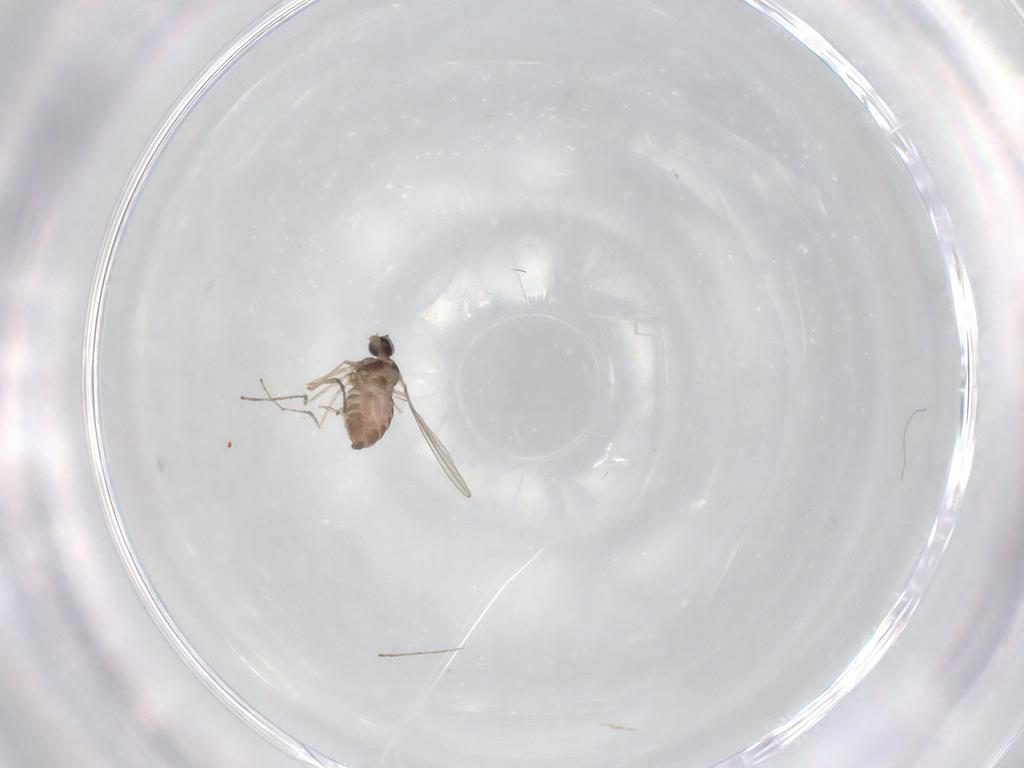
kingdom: Animalia
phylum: Arthropoda
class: Insecta
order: Diptera
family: Cecidomyiidae
